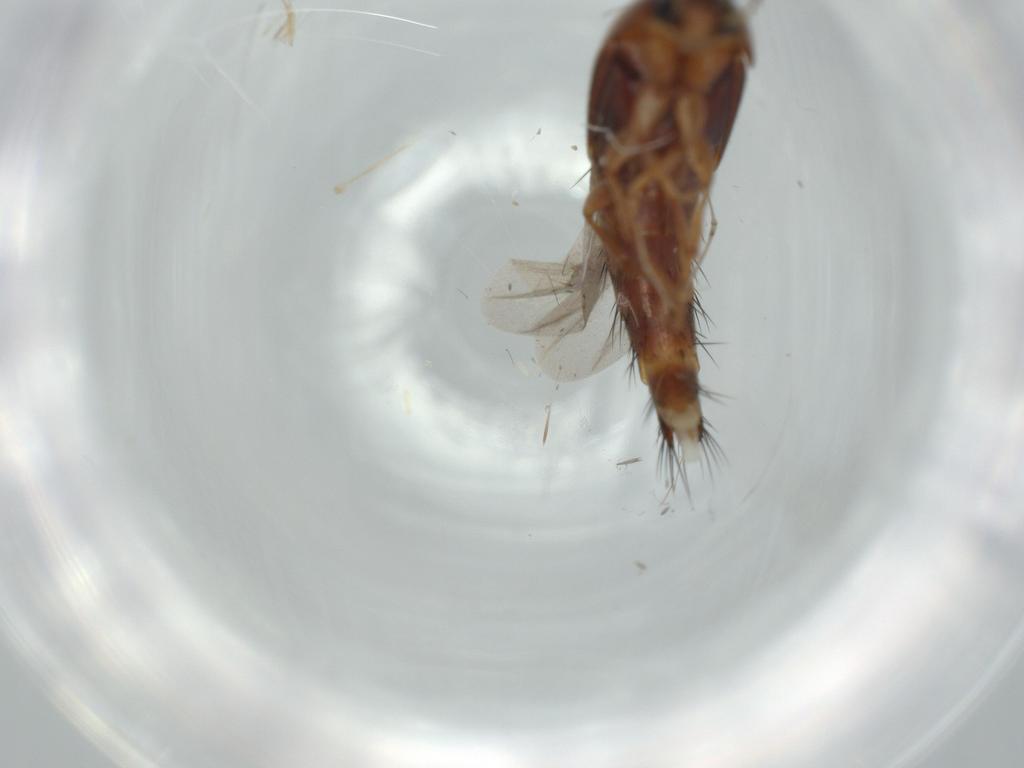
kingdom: Animalia
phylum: Arthropoda
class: Insecta
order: Coleoptera
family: Staphylinidae
